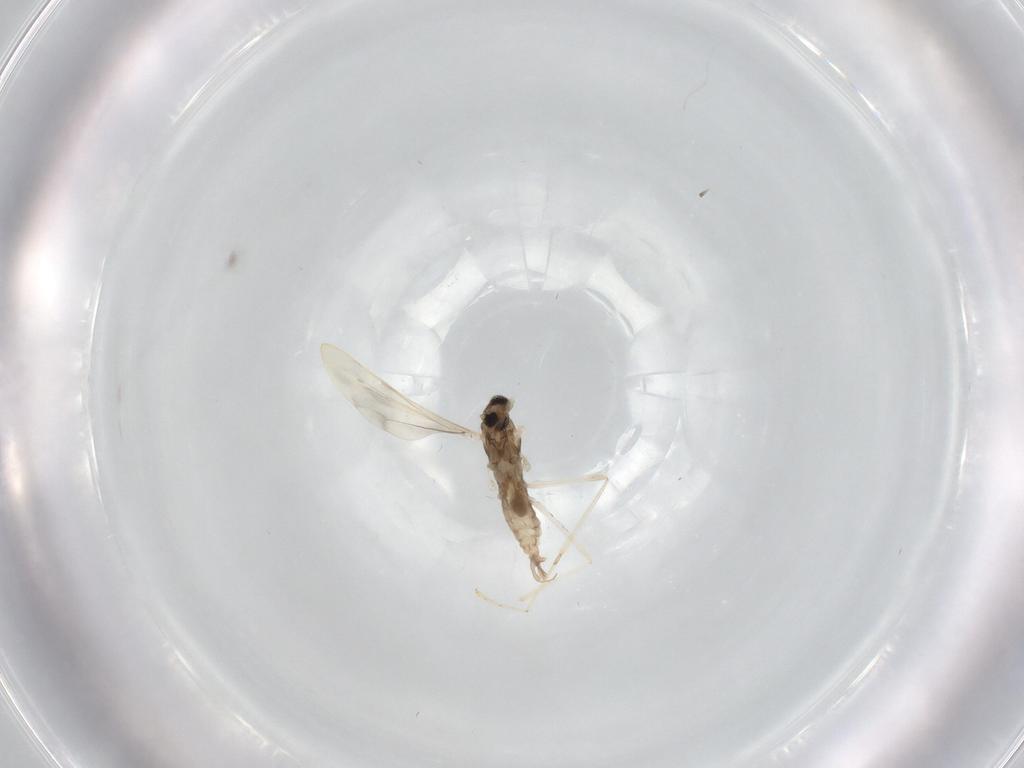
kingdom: Animalia
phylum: Arthropoda
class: Insecta
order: Diptera
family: Cecidomyiidae
